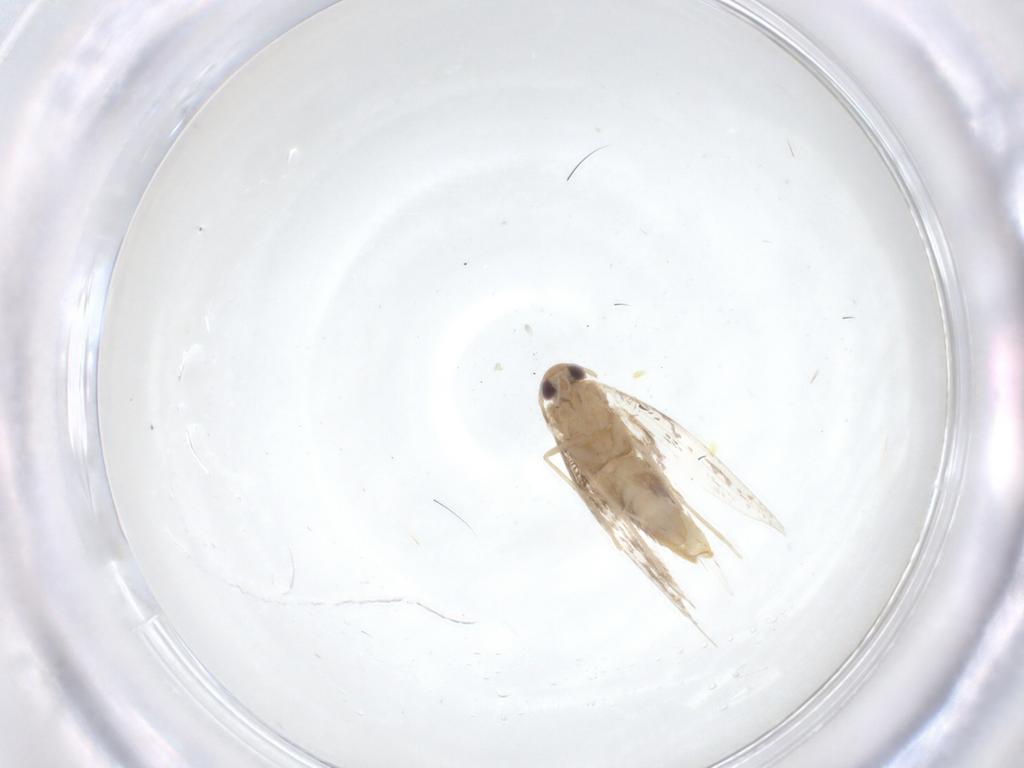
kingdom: Animalia
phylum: Arthropoda
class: Insecta
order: Lepidoptera
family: Gracillariidae
